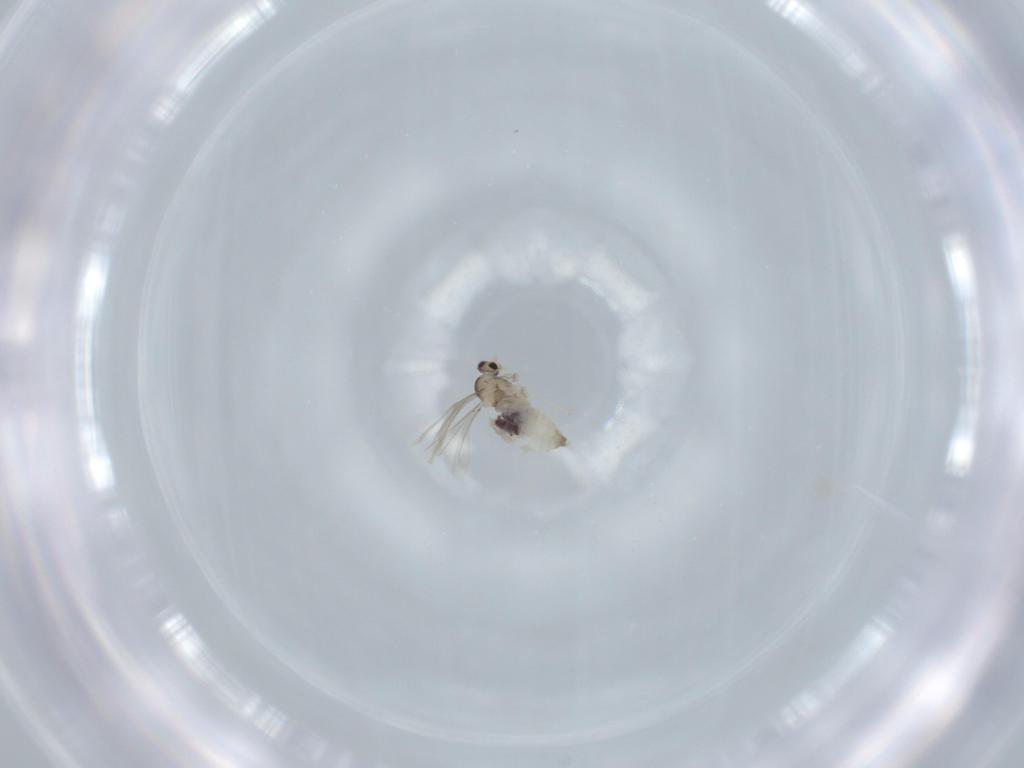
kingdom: Animalia
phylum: Arthropoda
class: Insecta
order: Diptera
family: Cecidomyiidae
